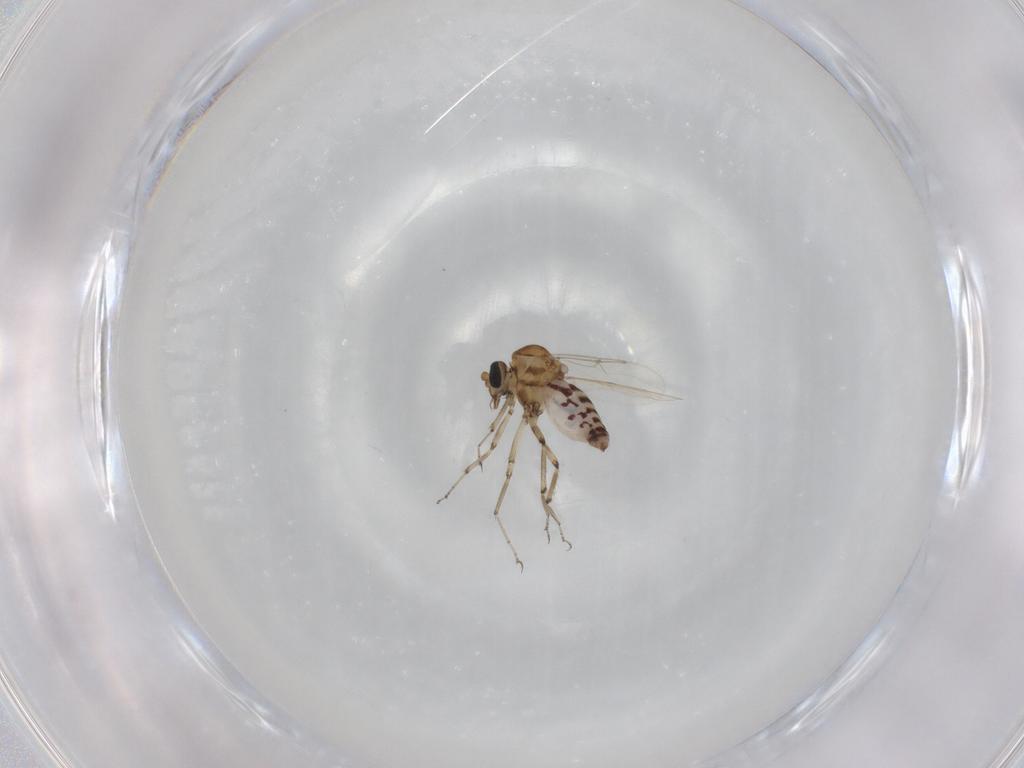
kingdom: Animalia
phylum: Arthropoda
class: Insecta
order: Diptera
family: Ceratopogonidae
